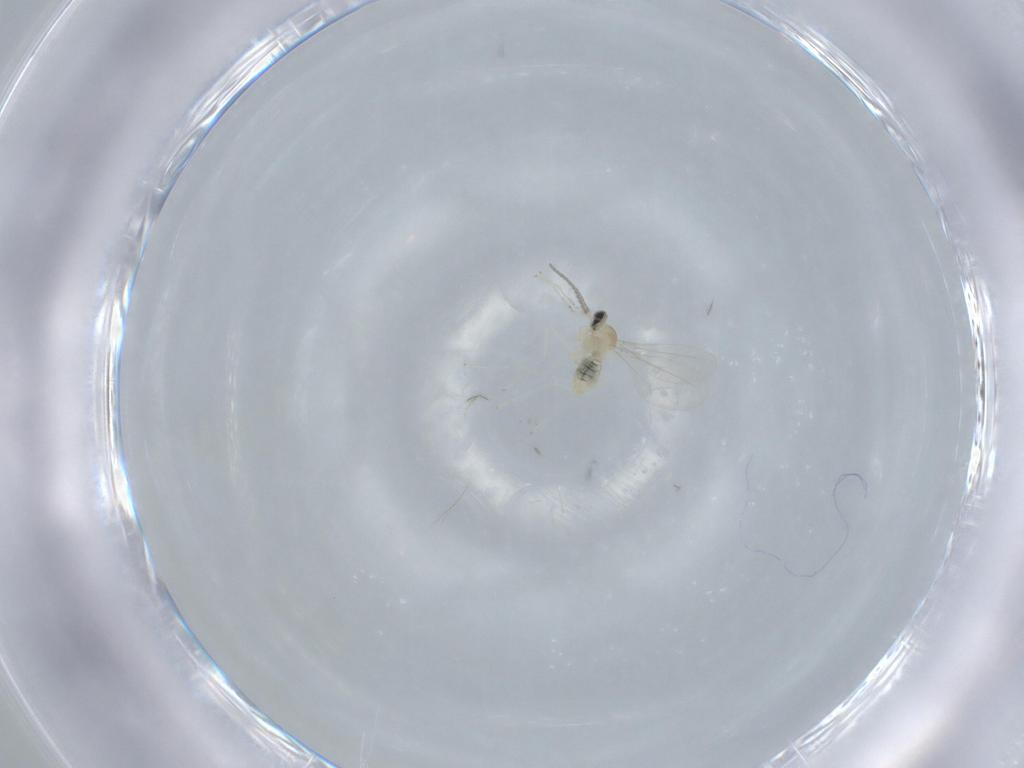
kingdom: Animalia
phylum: Arthropoda
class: Insecta
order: Diptera
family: Cecidomyiidae
